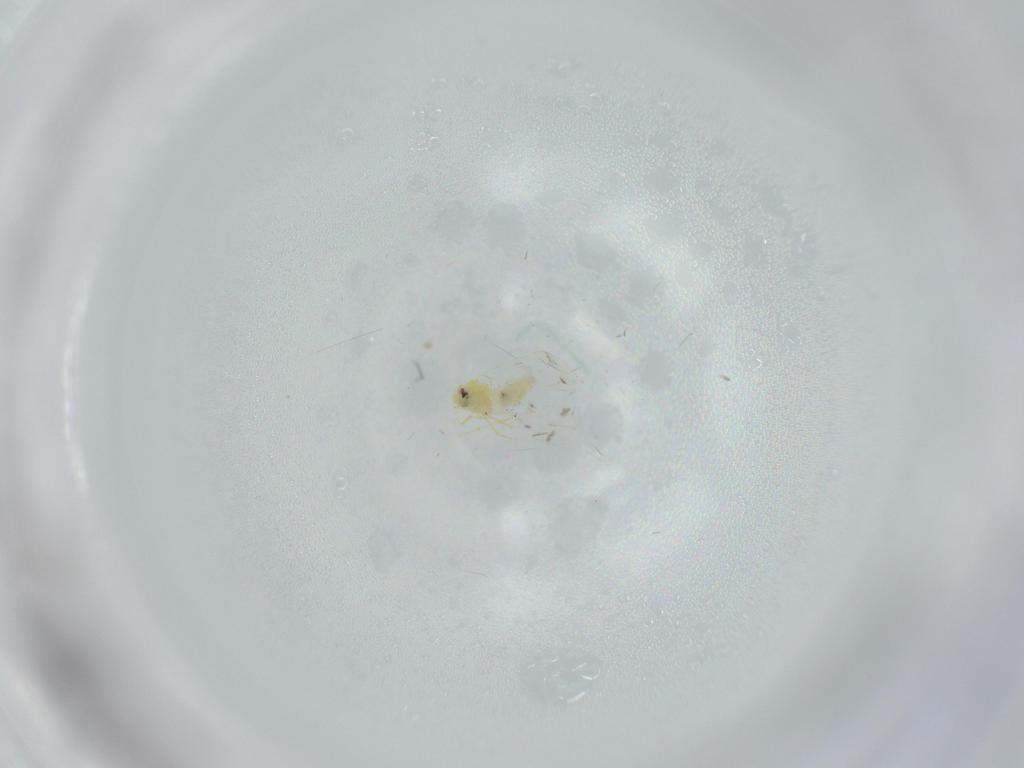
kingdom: Animalia
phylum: Arthropoda
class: Insecta
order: Hemiptera
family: Aleyrodidae
